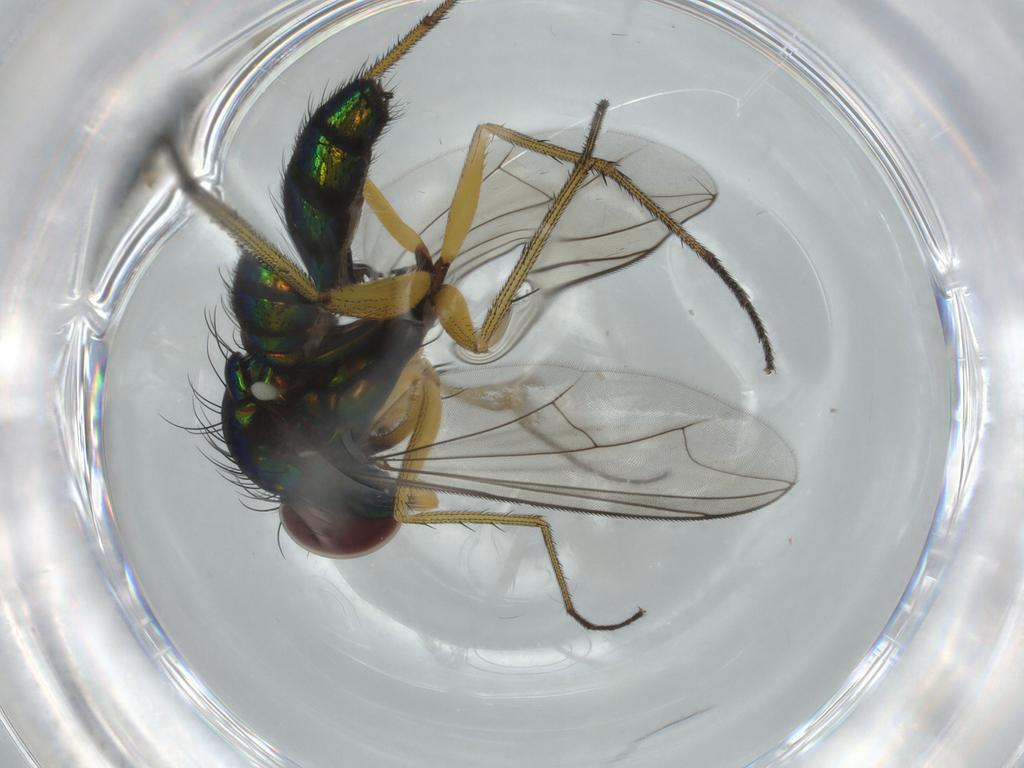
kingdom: Animalia
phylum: Arthropoda
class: Insecta
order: Diptera
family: Dolichopodidae
